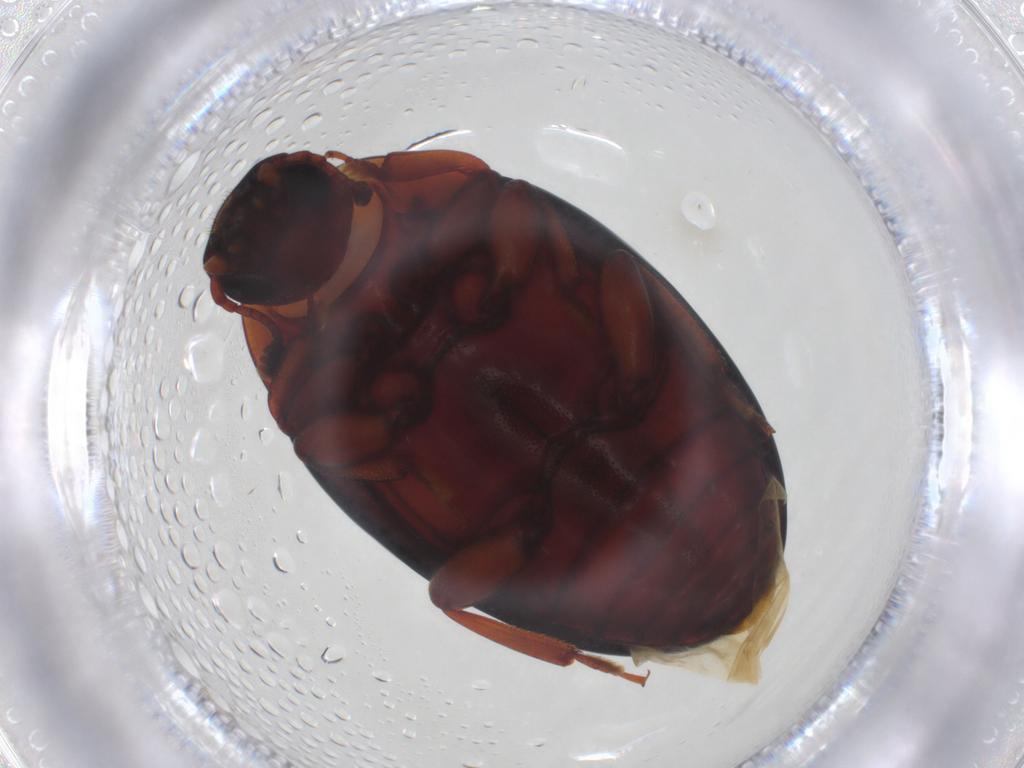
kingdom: Animalia
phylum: Arthropoda
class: Insecta
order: Coleoptera
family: Zopheridae
